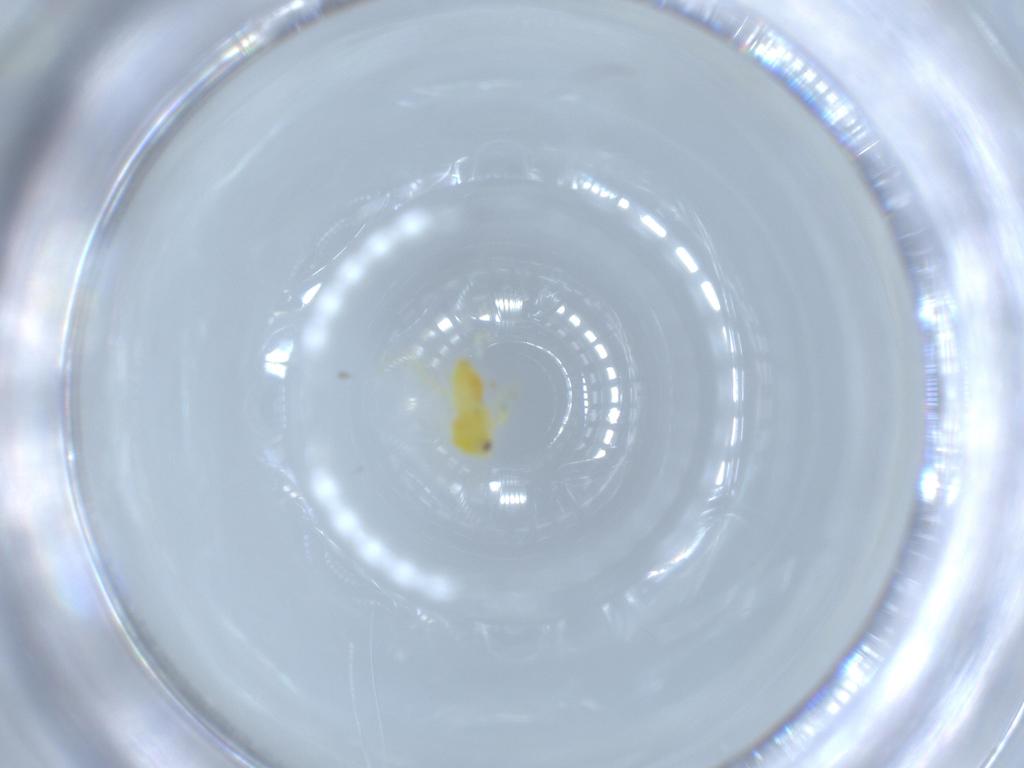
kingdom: Animalia
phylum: Arthropoda
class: Insecta
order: Hemiptera
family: Aleyrodidae
